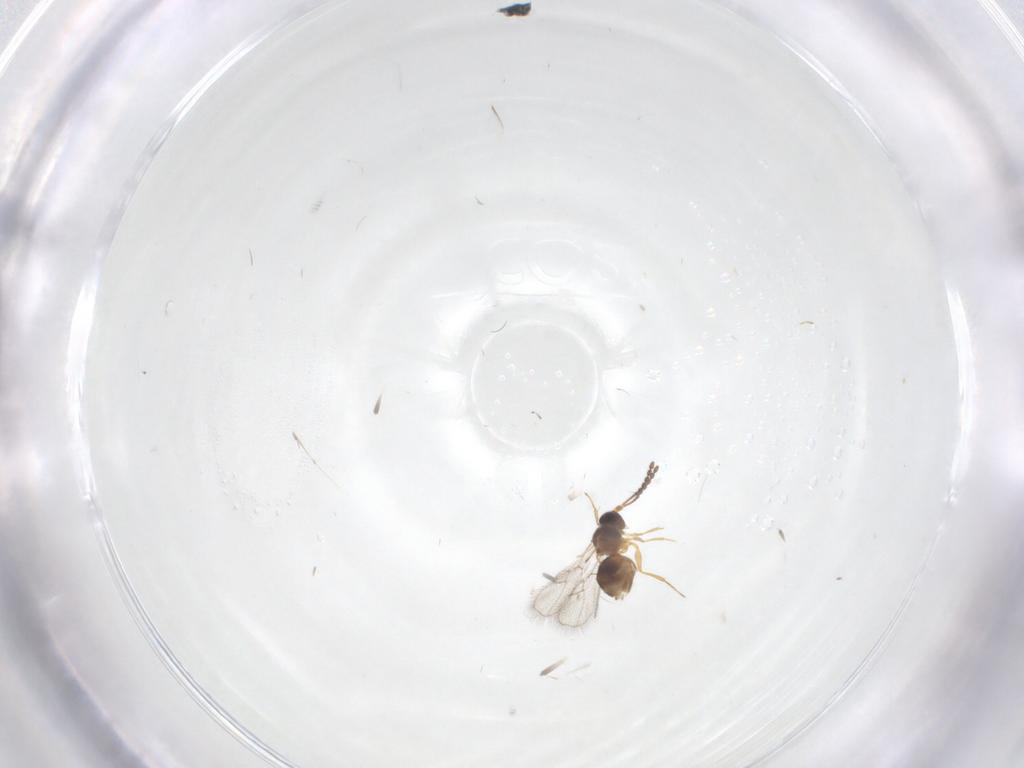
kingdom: Animalia
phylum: Arthropoda
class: Insecta
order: Hymenoptera
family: Figitidae
